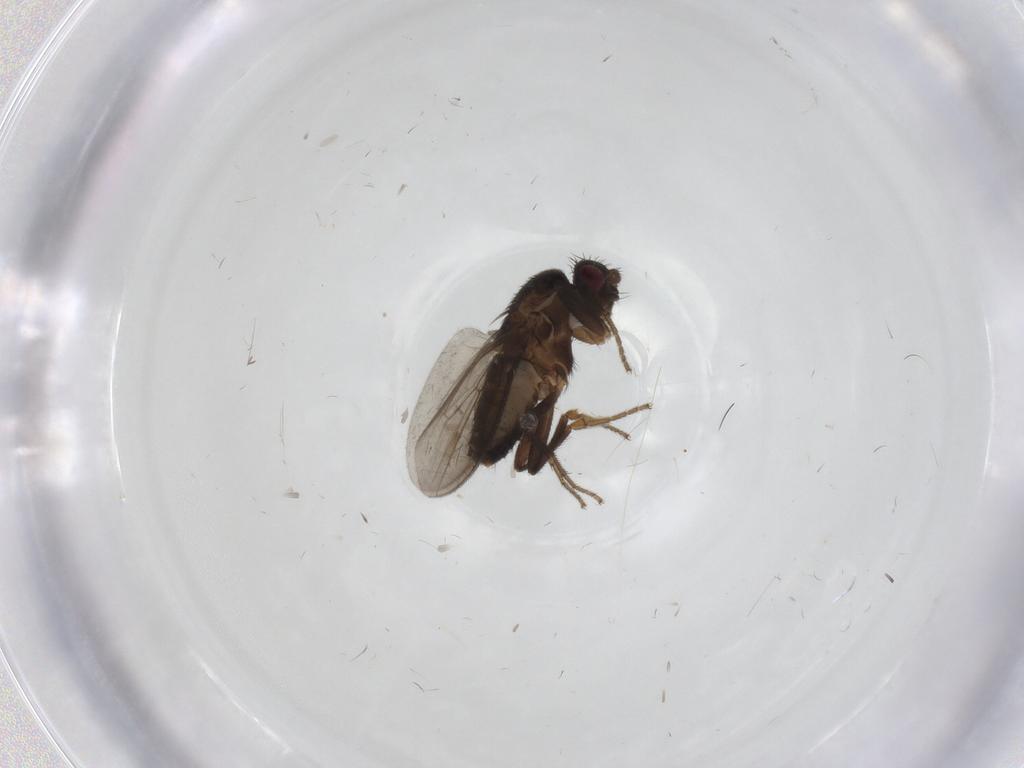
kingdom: Animalia
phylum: Arthropoda
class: Insecta
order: Diptera
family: Sphaeroceridae
